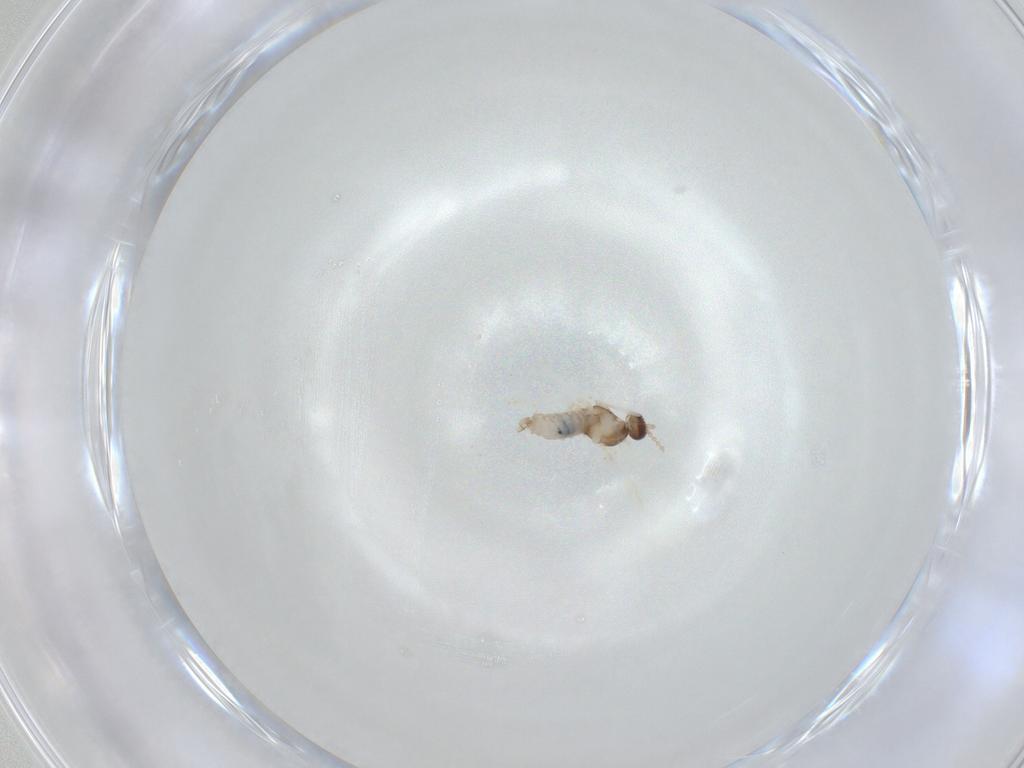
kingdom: Animalia
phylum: Arthropoda
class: Insecta
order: Diptera
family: Cecidomyiidae
